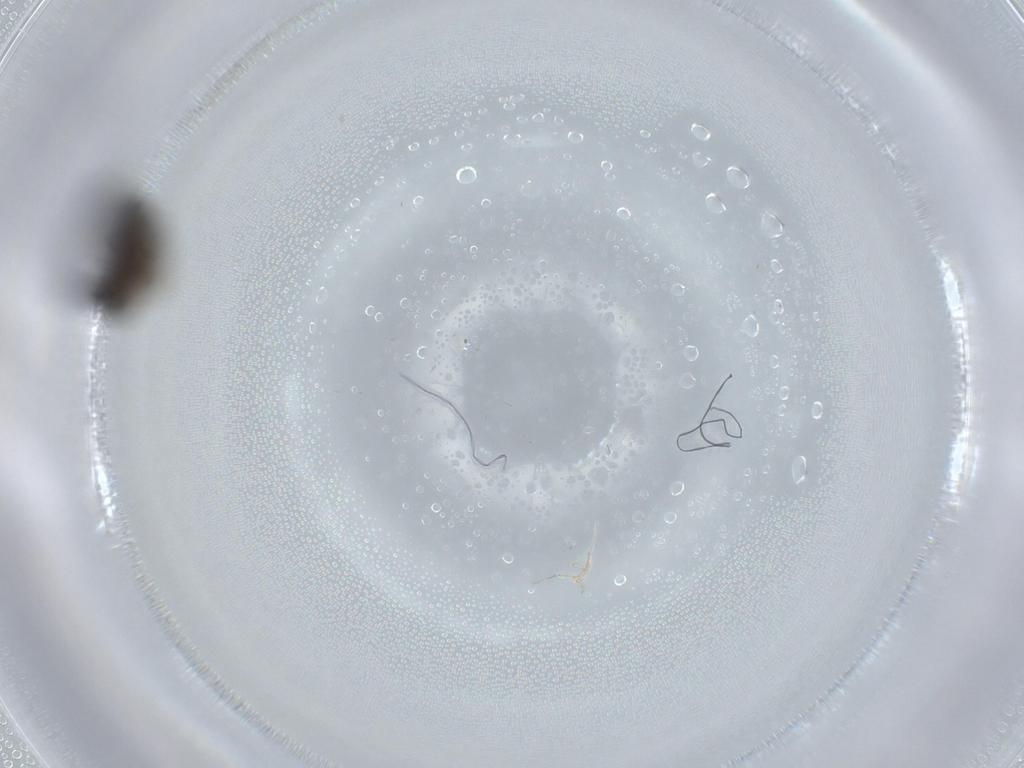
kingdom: Animalia
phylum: Arthropoda
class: Insecta
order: Diptera
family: Psychodidae
